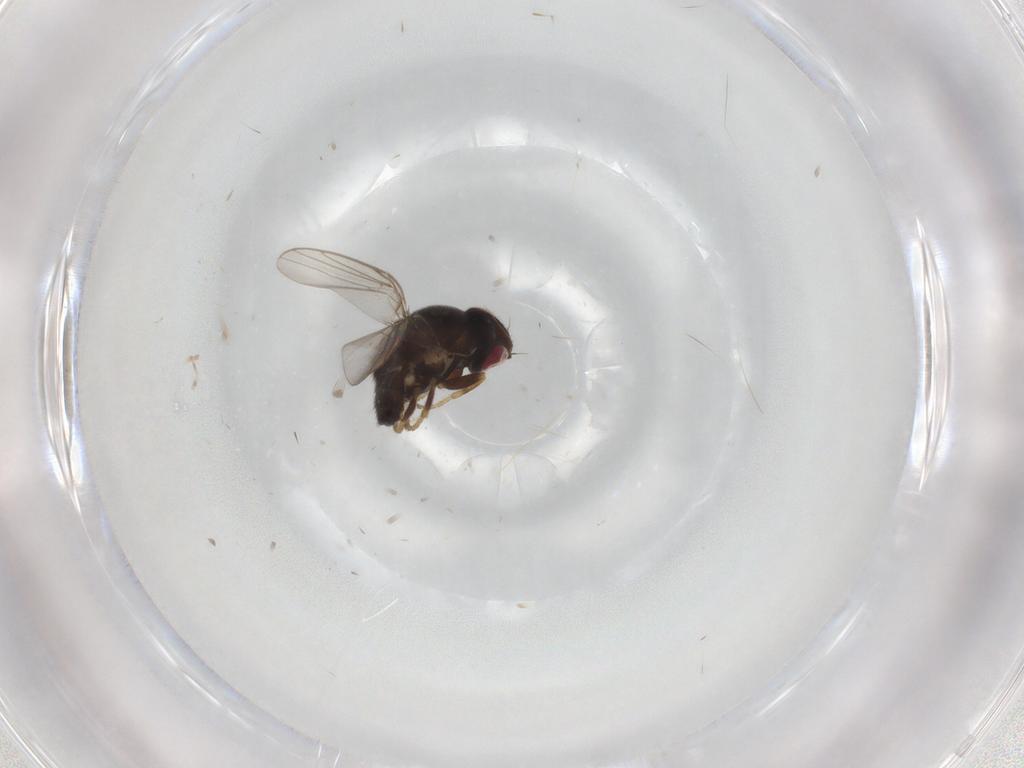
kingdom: Animalia
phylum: Arthropoda
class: Insecta
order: Diptera
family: Chloropidae
